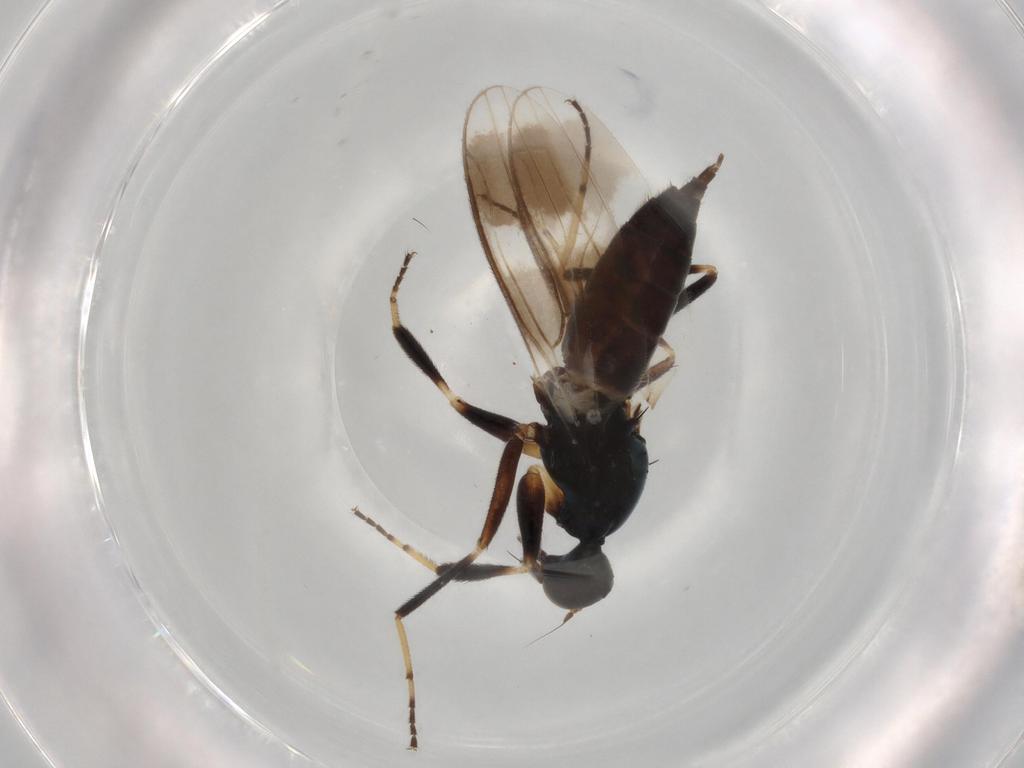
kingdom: Animalia
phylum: Arthropoda
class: Insecta
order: Diptera
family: Hybotidae
